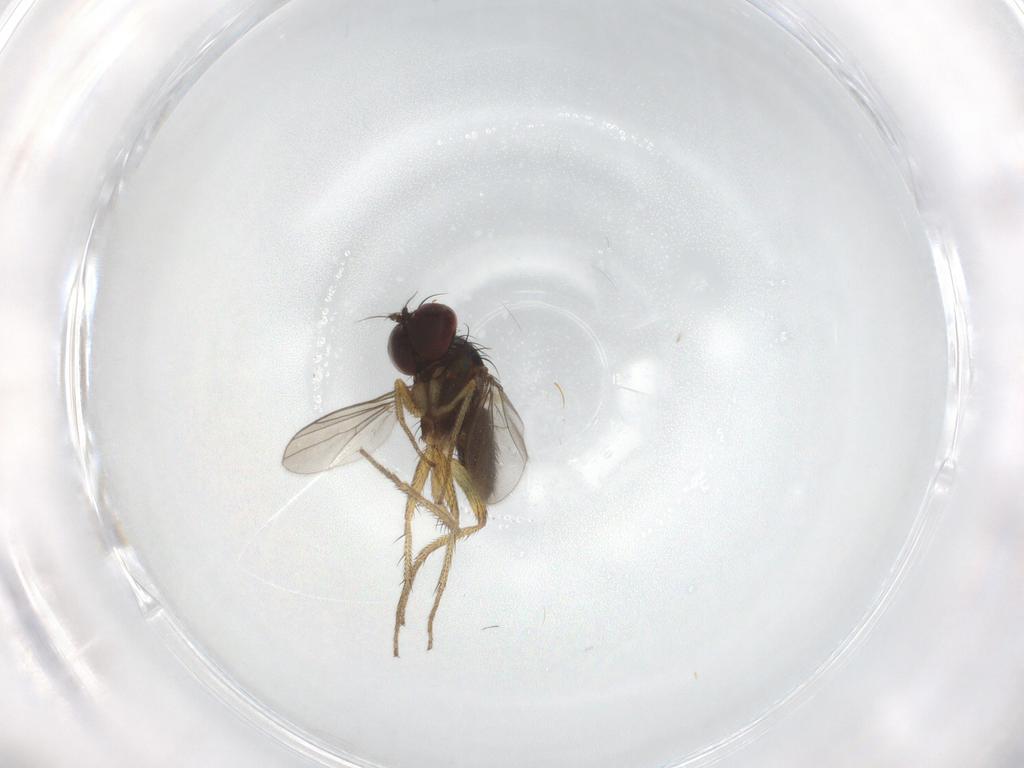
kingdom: Animalia
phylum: Arthropoda
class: Insecta
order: Diptera
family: Dolichopodidae
